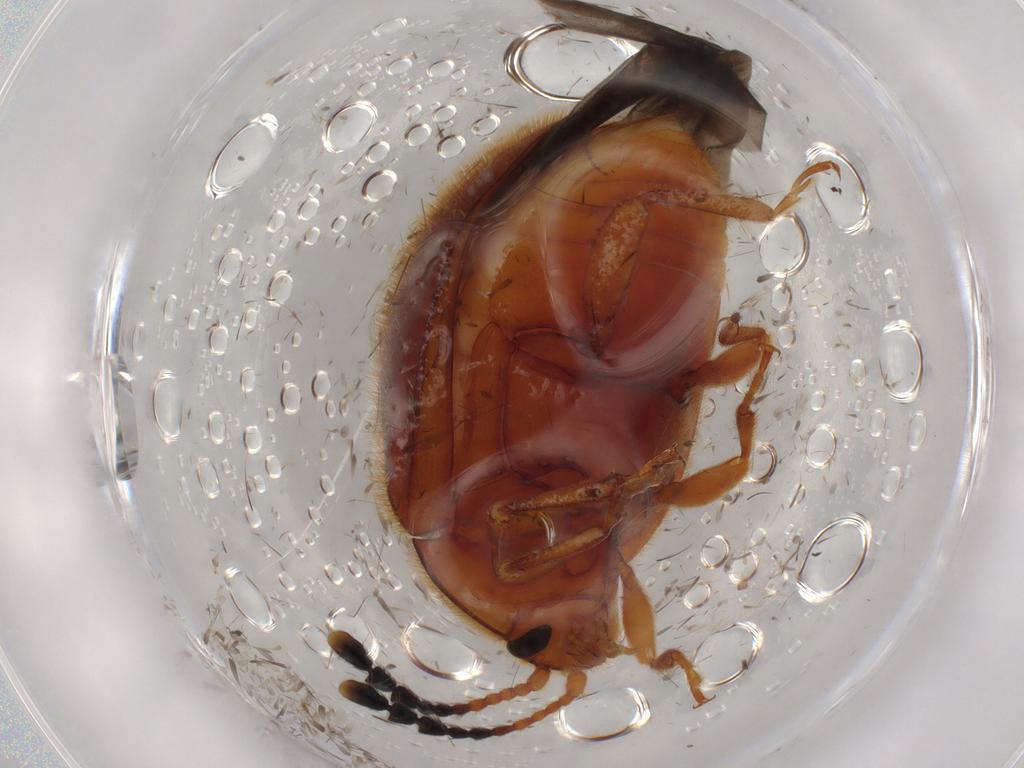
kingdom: Animalia
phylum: Arthropoda
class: Insecta
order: Coleoptera
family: Endomychidae
